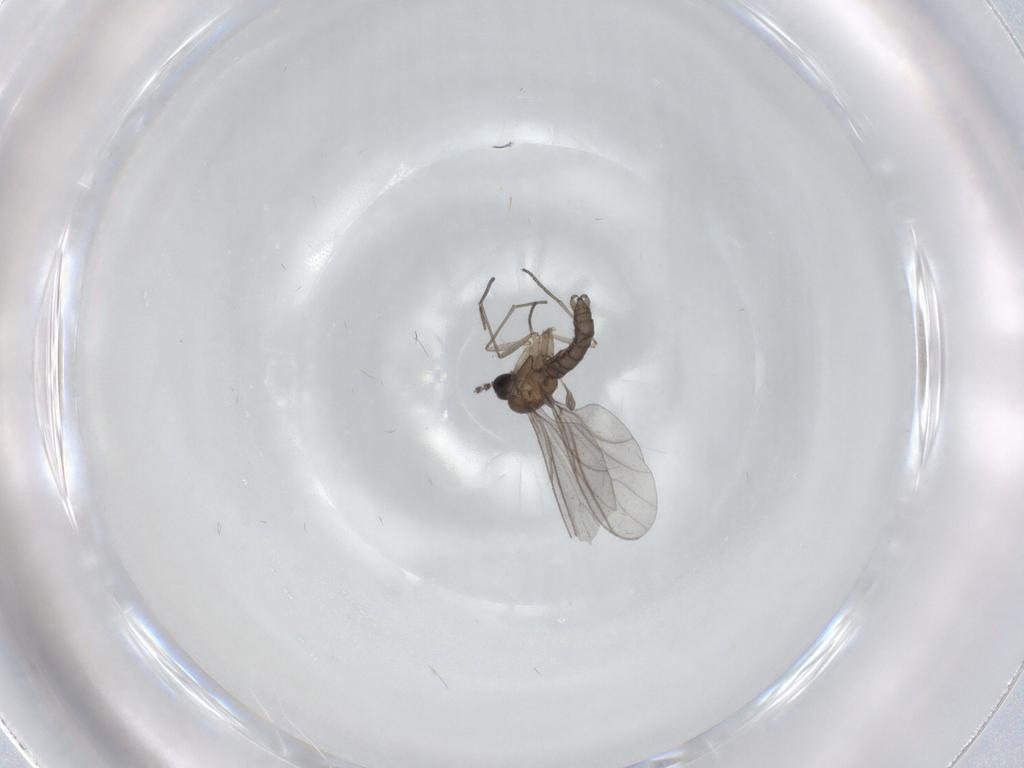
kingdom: Animalia
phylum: Arthropoda
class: Insecta
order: Diptera
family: Sciaridae
